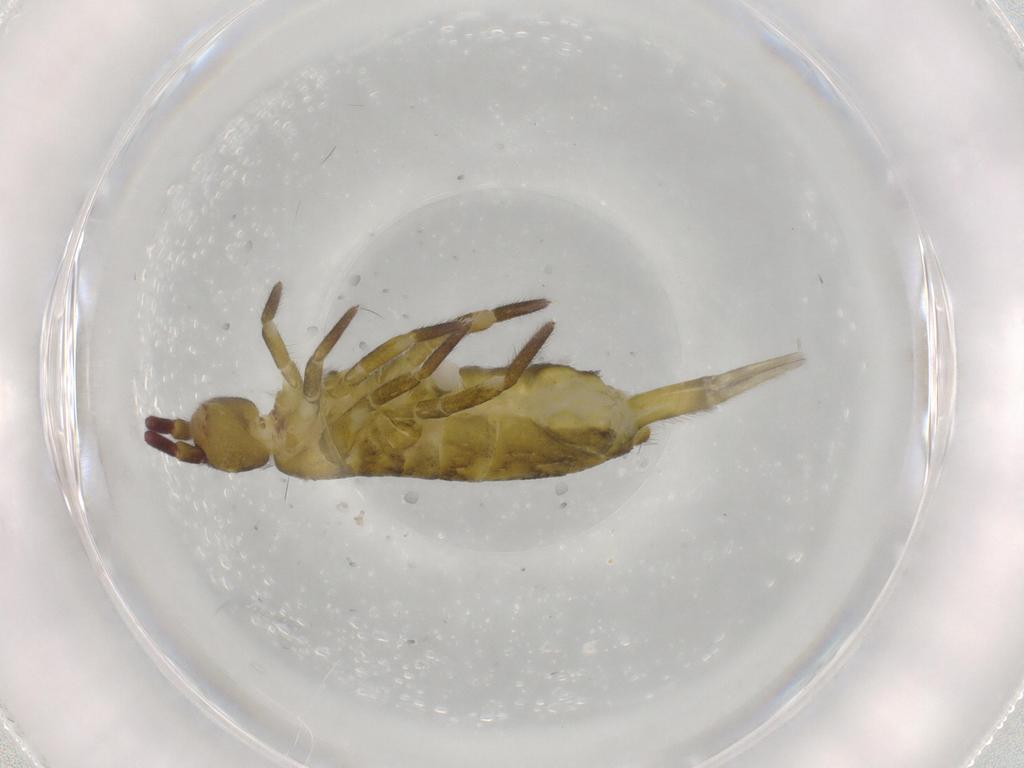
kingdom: Animalia
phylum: Arthropoda
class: Collembola
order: Entomobryomorpha
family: Tomoceridae
